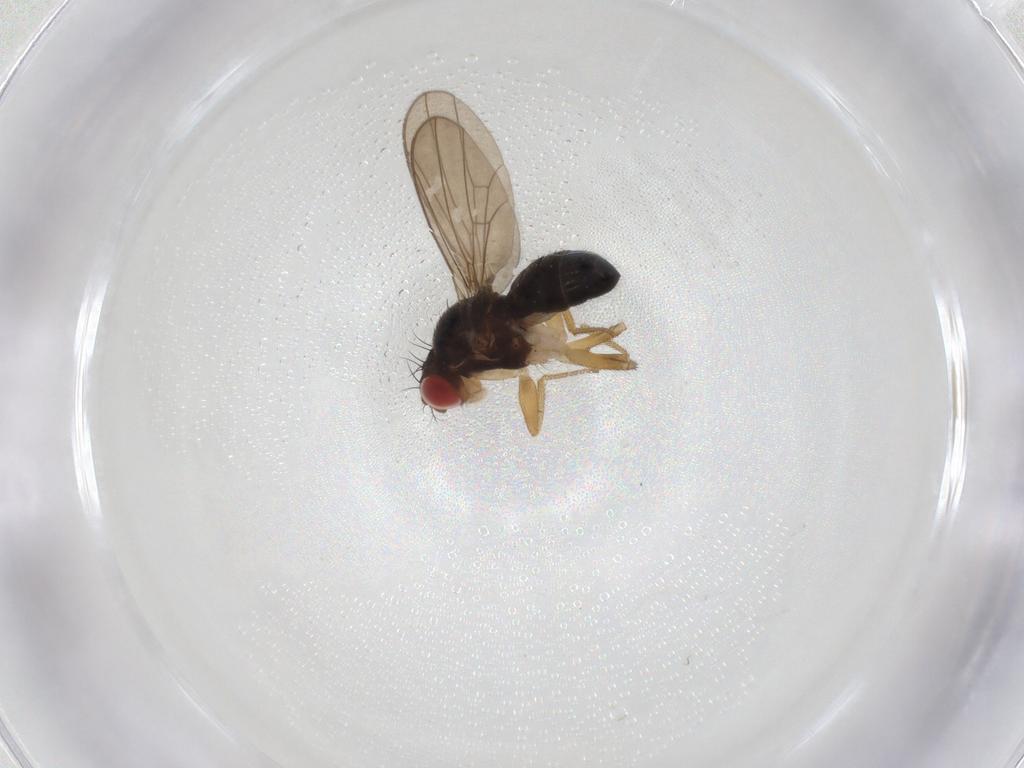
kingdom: Animalia
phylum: Arthropoda
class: Insecta
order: Diptera
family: Drosophilidae
